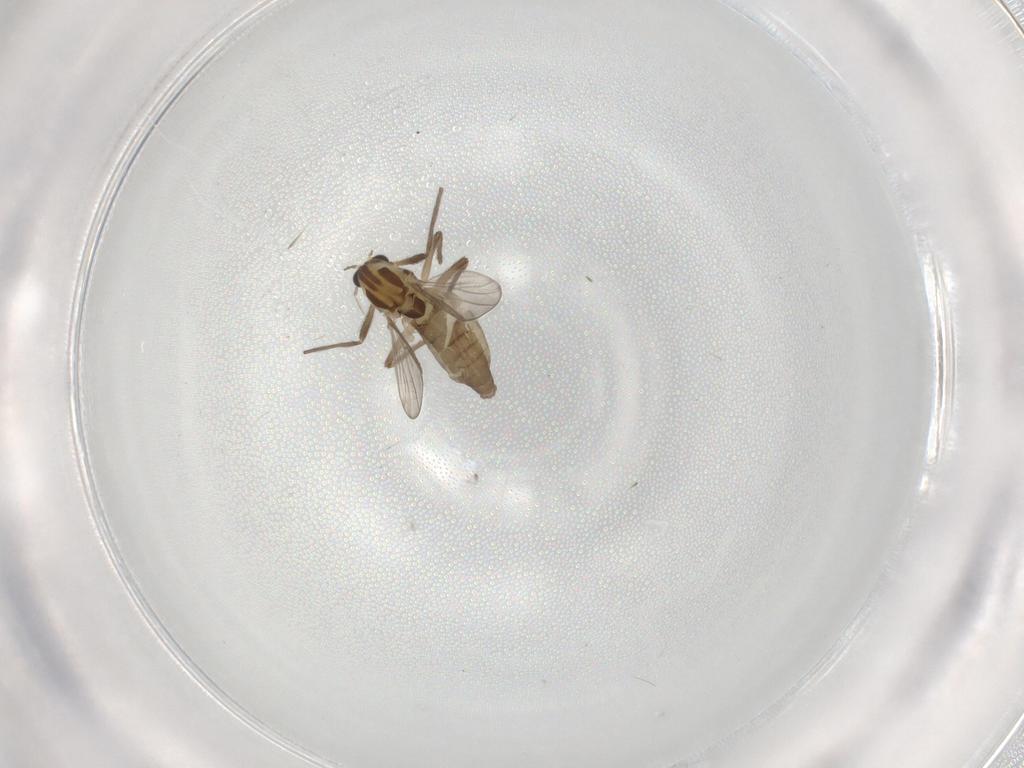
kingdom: Animalia
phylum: Arthropoda
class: Insecta
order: Diptera
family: Chironomidae
